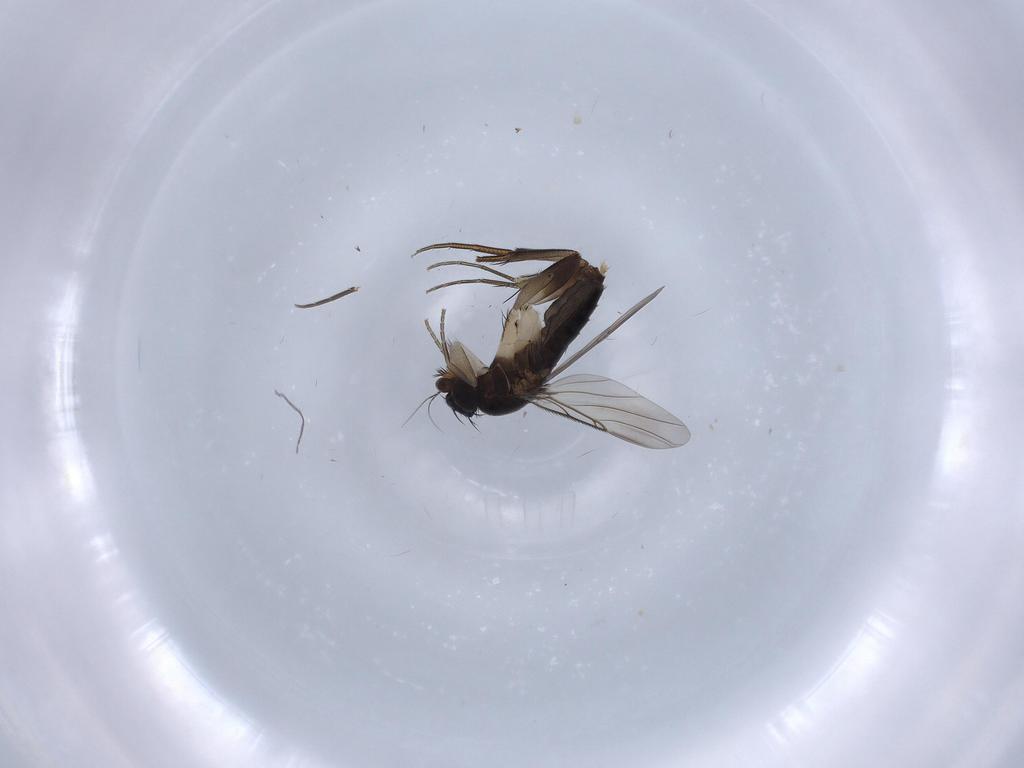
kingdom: Animalia
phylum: Arthropoda
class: Insecta
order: Diptera
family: Phoridae
